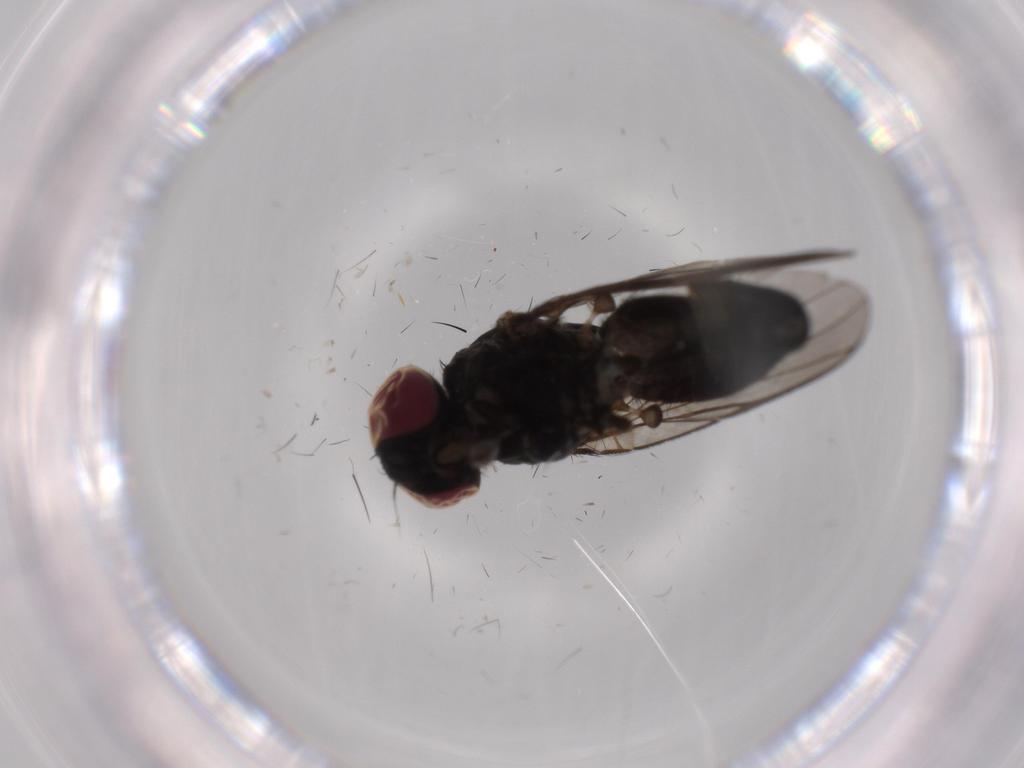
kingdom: Animalia
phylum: Arthropoda
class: Insecta
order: Diptera
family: Muscidae
